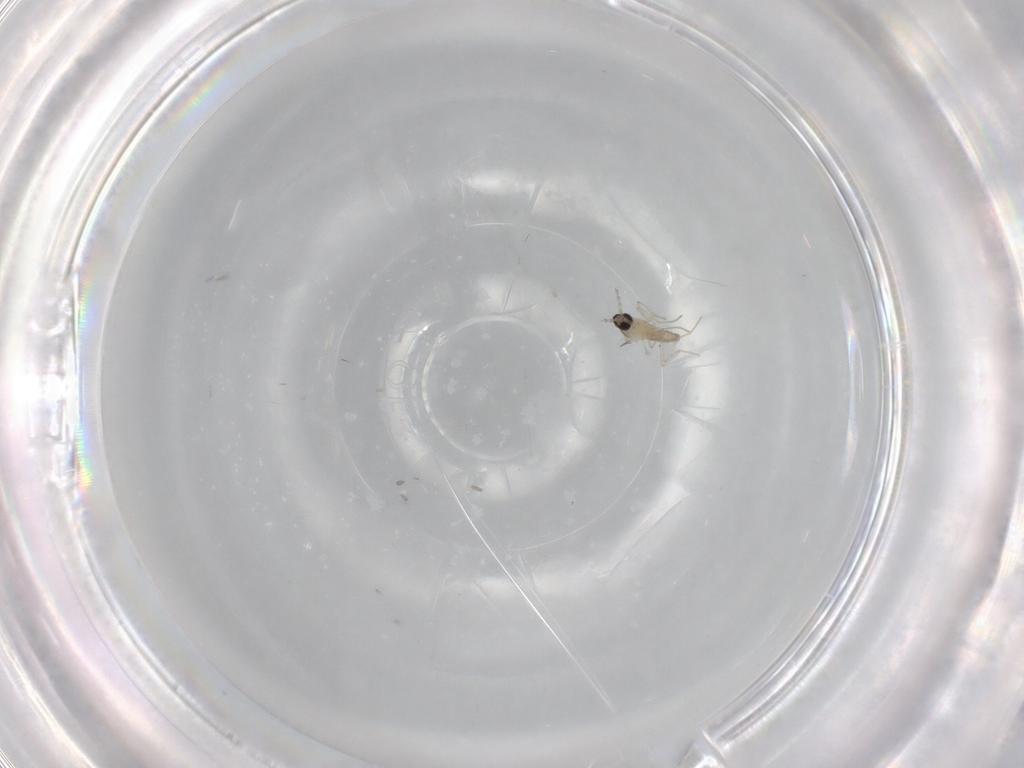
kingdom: Animalia
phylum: Arthropoda
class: Insecta
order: Diptera
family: Cecidomyiidae
